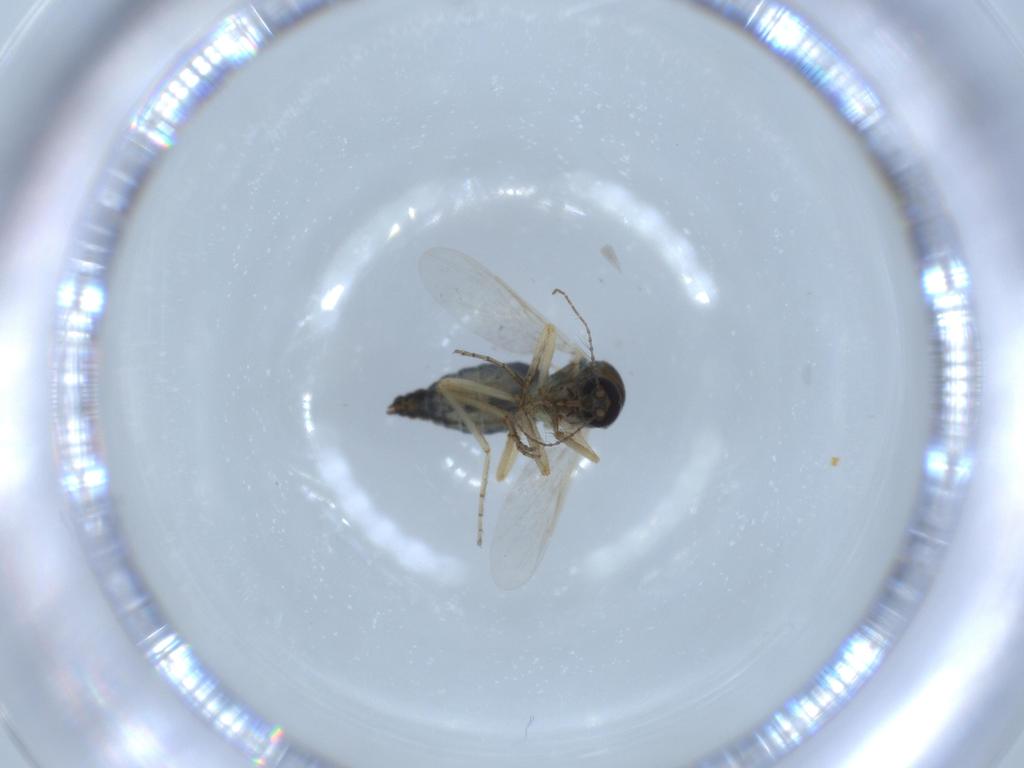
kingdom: Animalia
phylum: Arthropoda
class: Insecta
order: Diptera
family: Ceratopogonidae
